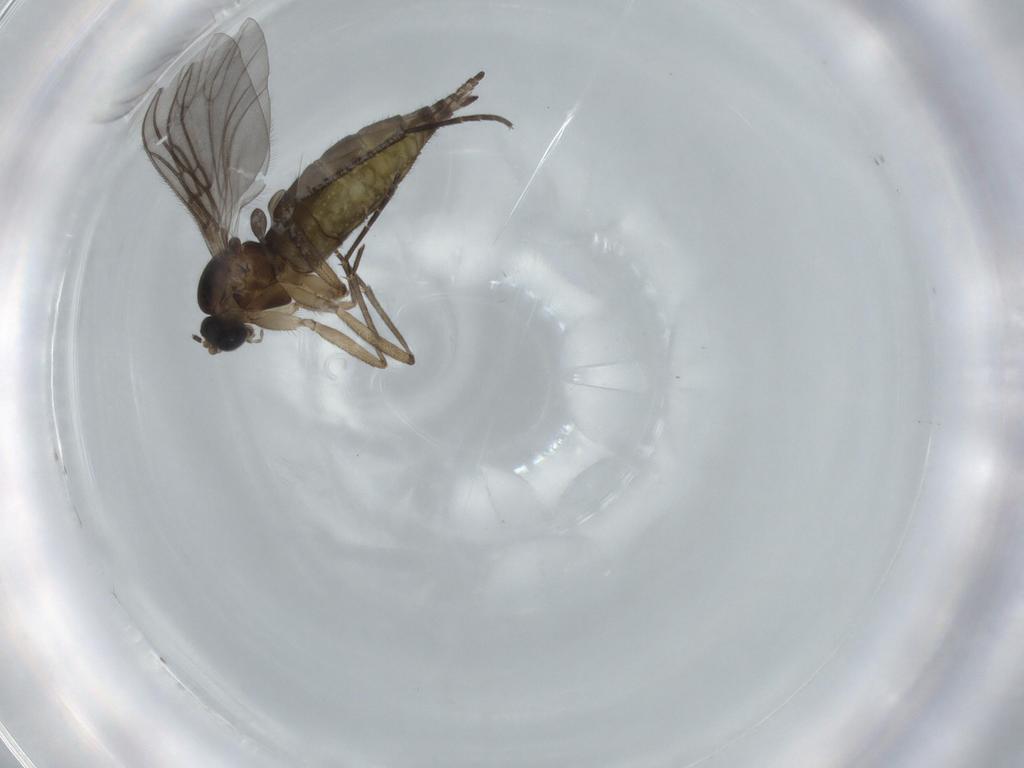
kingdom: Animalia
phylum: Arthropoda
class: Insecta
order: Diptera
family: Sciaridae
